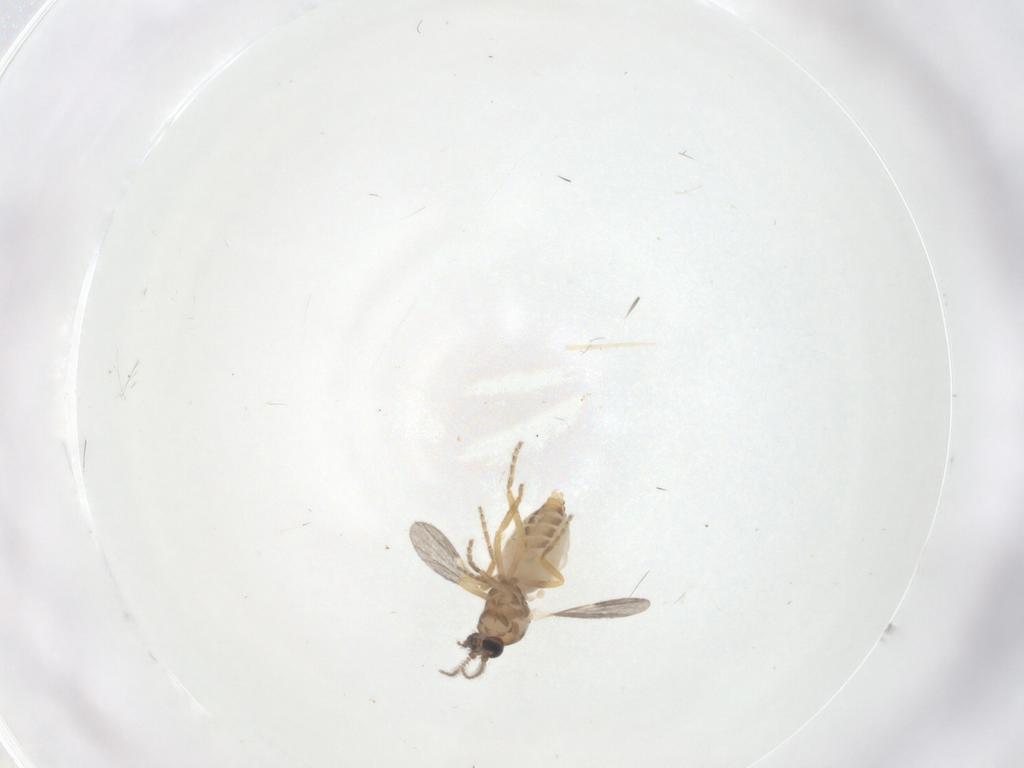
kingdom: Animalia
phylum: Arthropoda
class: Insecta
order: Diptera
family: Ceratopogonidae
